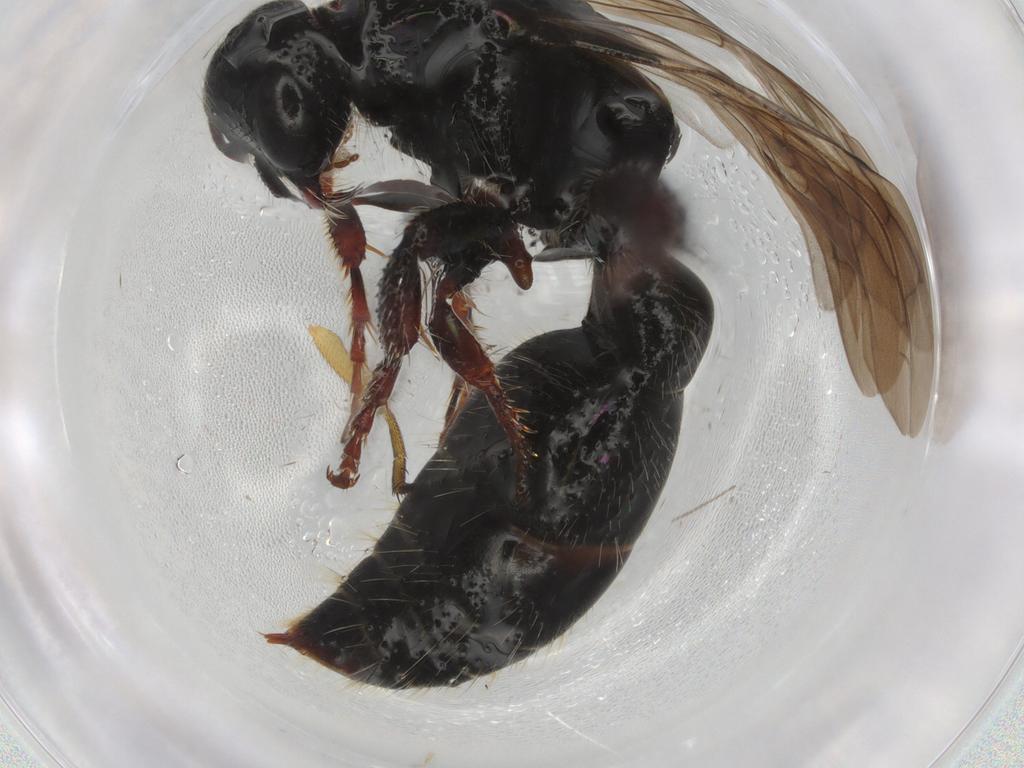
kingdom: Animalia
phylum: Arthropoda
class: Insecta
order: Hymenoptera
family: Tiphiidae
